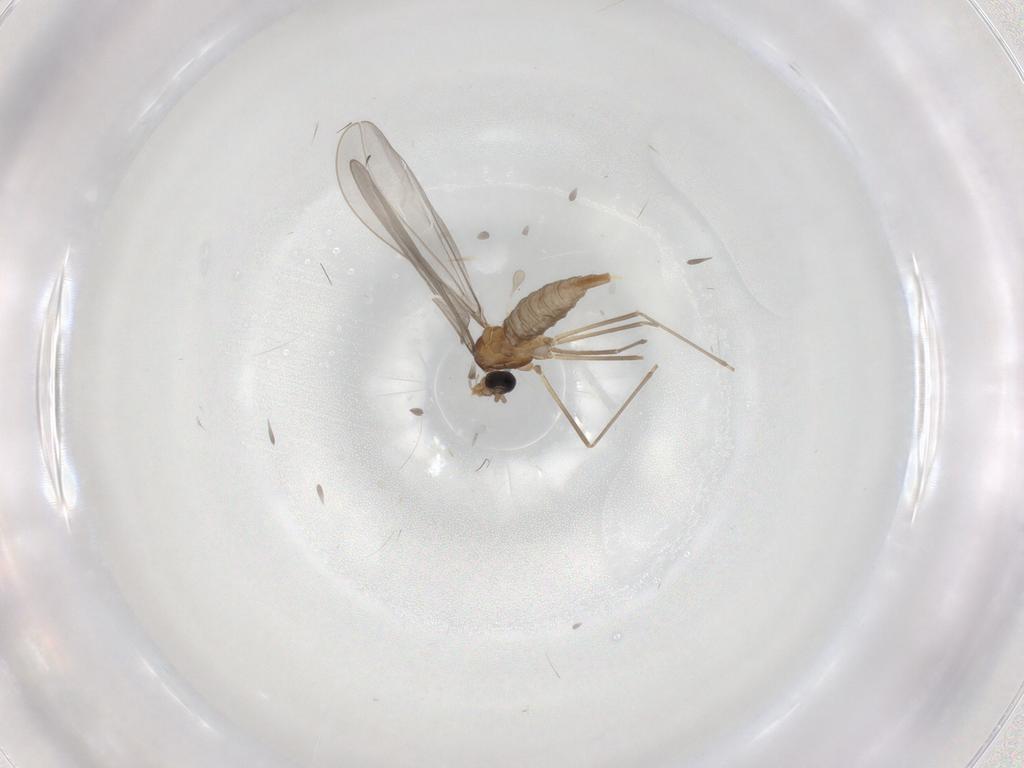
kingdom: Animalia
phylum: Arthropoda
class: Insecta
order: Diptera
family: Cecidomyiidae
